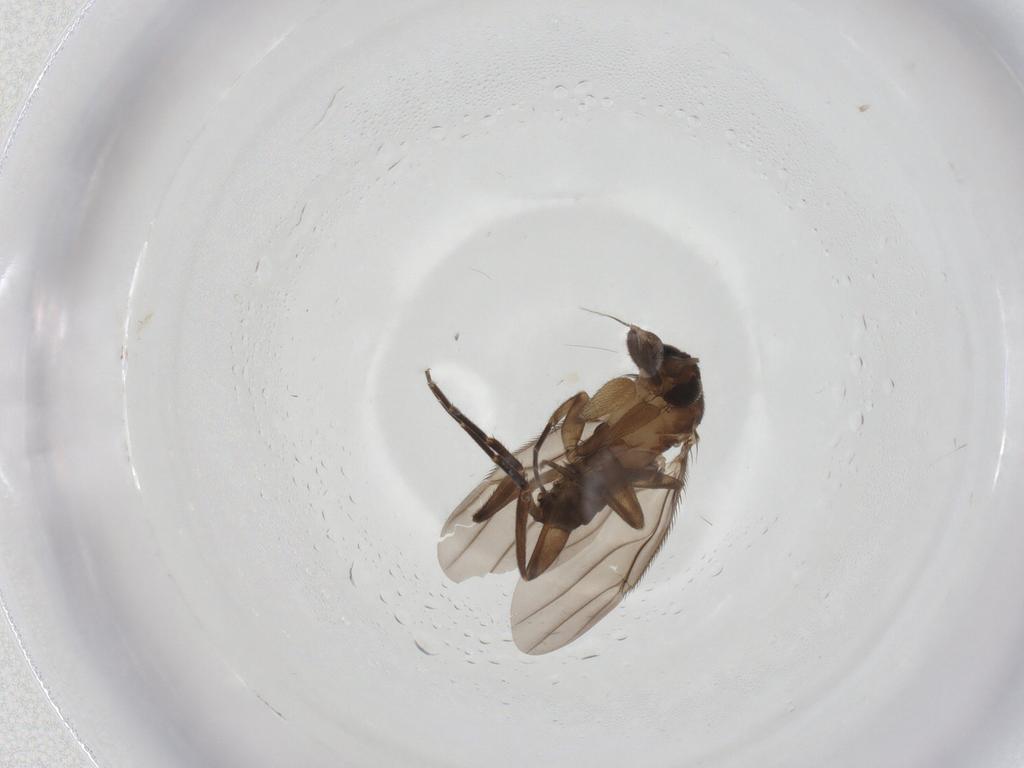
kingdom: Animalia
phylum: Arthropoda
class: Insecta
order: Diptera
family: Phoridae
